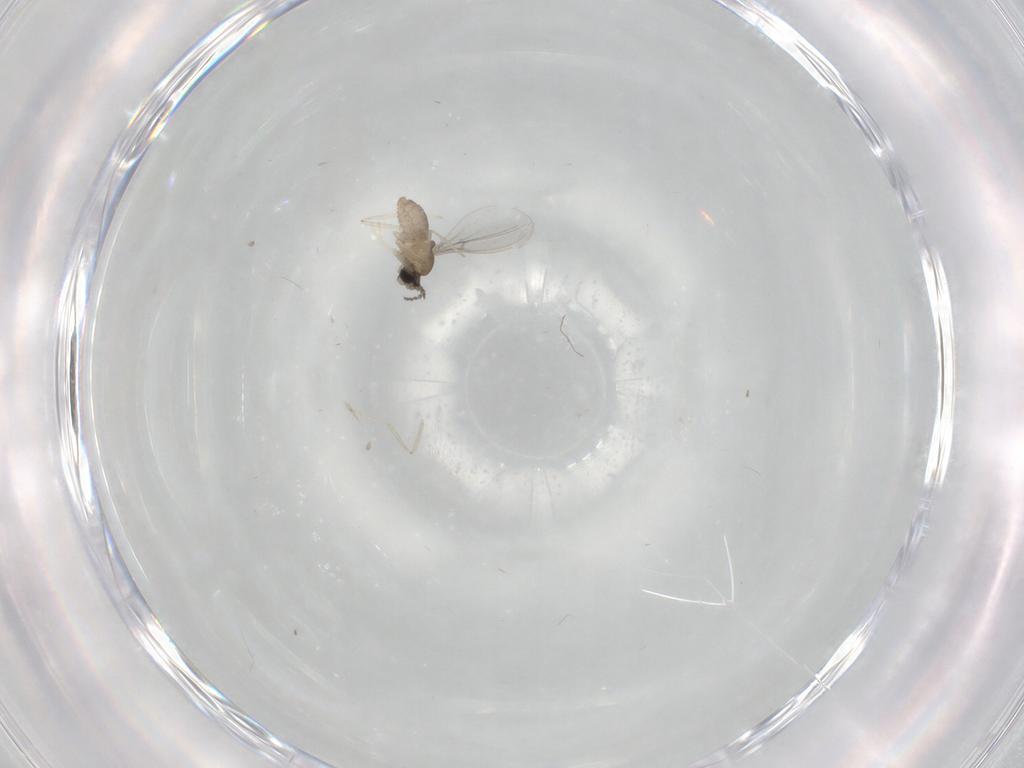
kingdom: Animalia
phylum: Arthropoda
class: Insecta
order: Diptera
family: Cecidomyiidae
